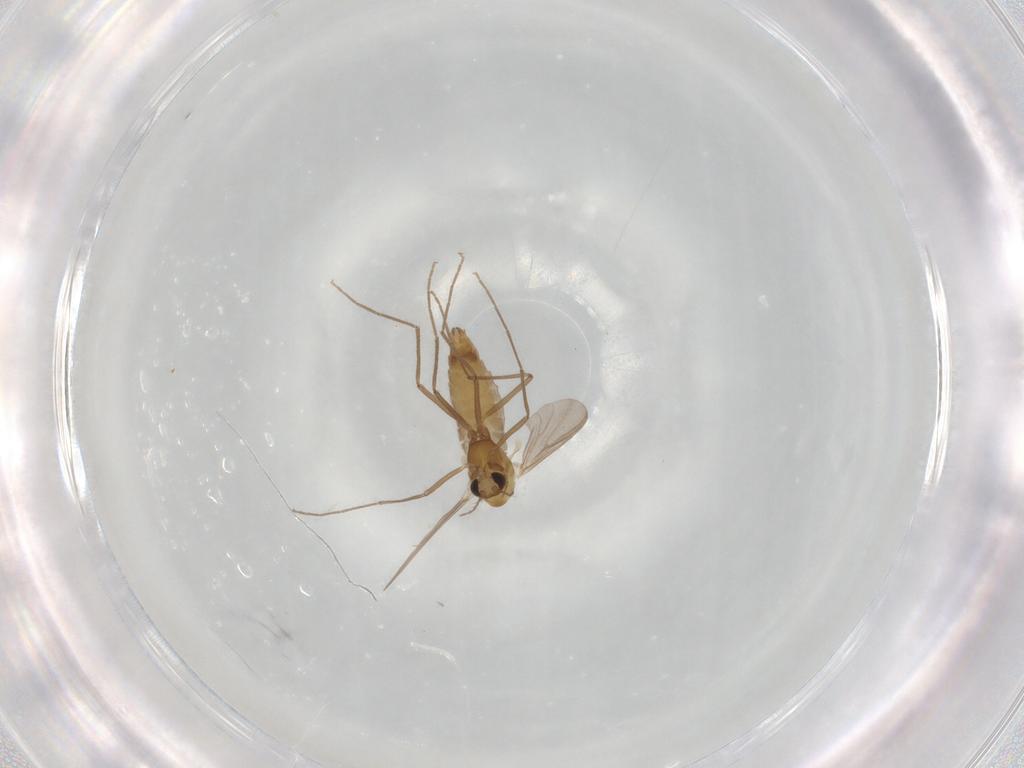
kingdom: Animalia
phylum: Arthropoda
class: Insecta
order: Diptera
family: Chironomidae
